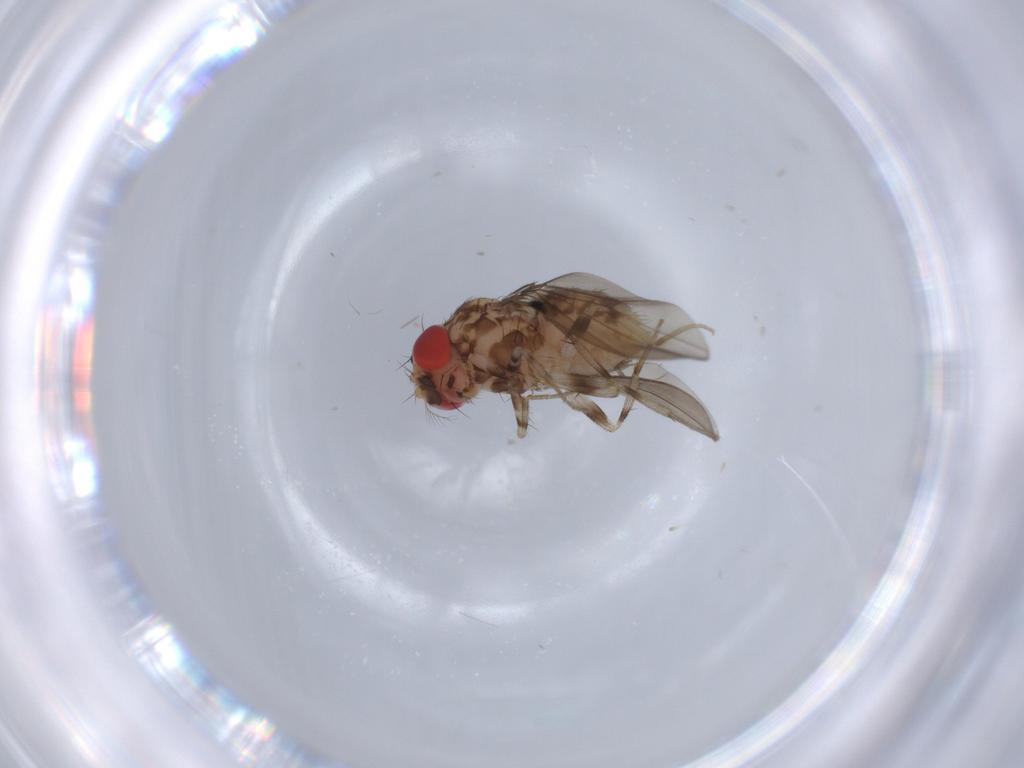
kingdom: Animalia
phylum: Arthropoda
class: Insecta
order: Diptera
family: Drosophilidae
